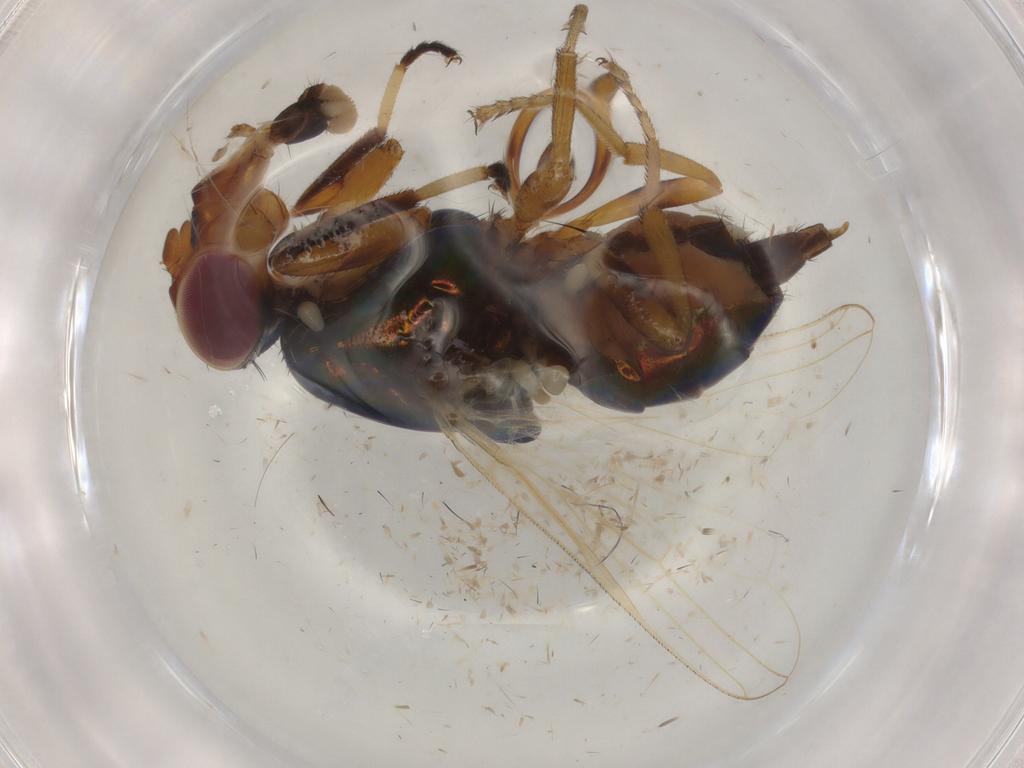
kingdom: Animalia
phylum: Arthropoda
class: Insecta
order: Diptera
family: Ulidiidae
